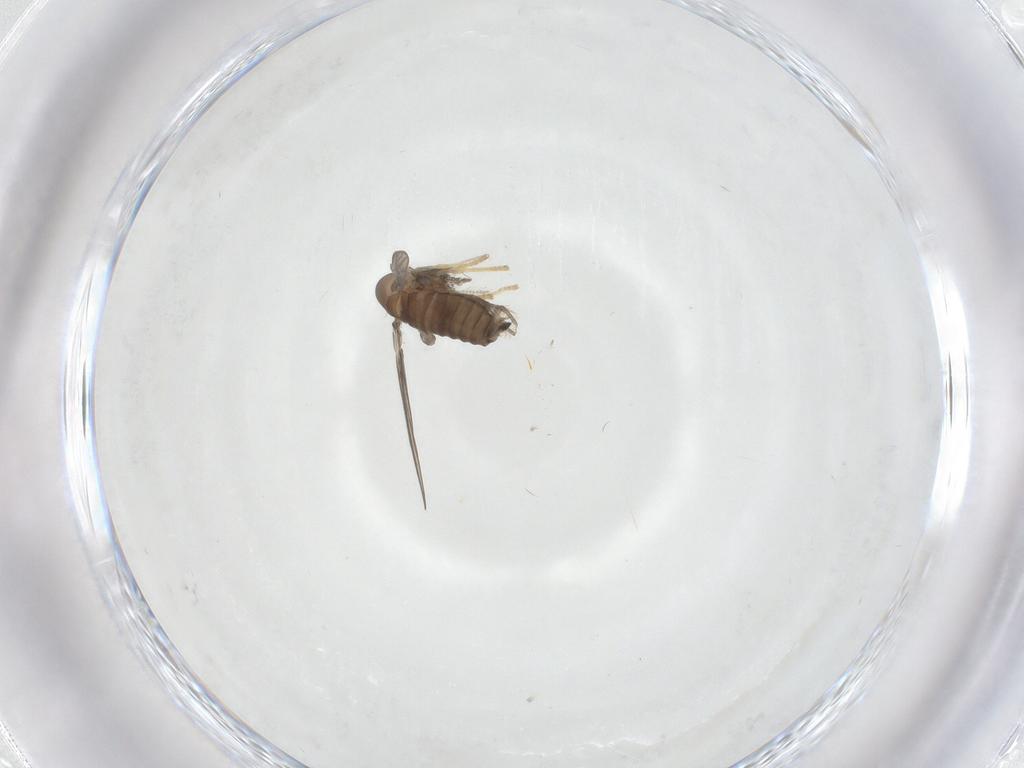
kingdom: Animalia
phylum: Arthropoda
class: Insecta
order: Diptera
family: Psychodidae
